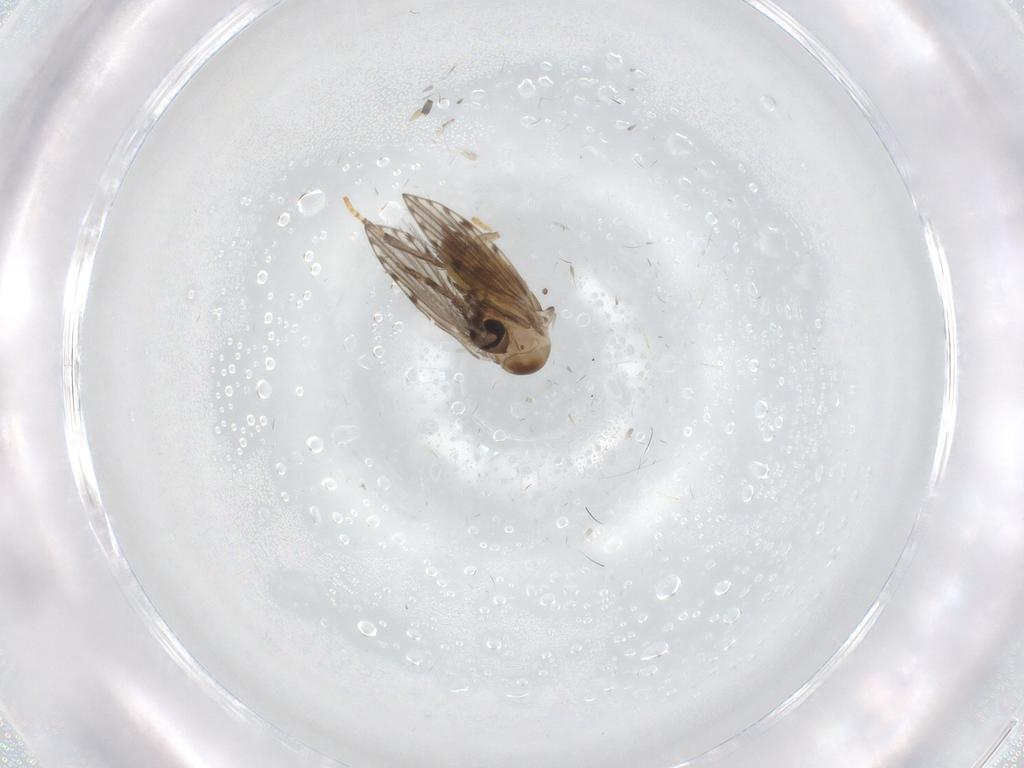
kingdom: Animalia
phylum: Arthropoda
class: Insecta
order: Diptera
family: Psychodidae
